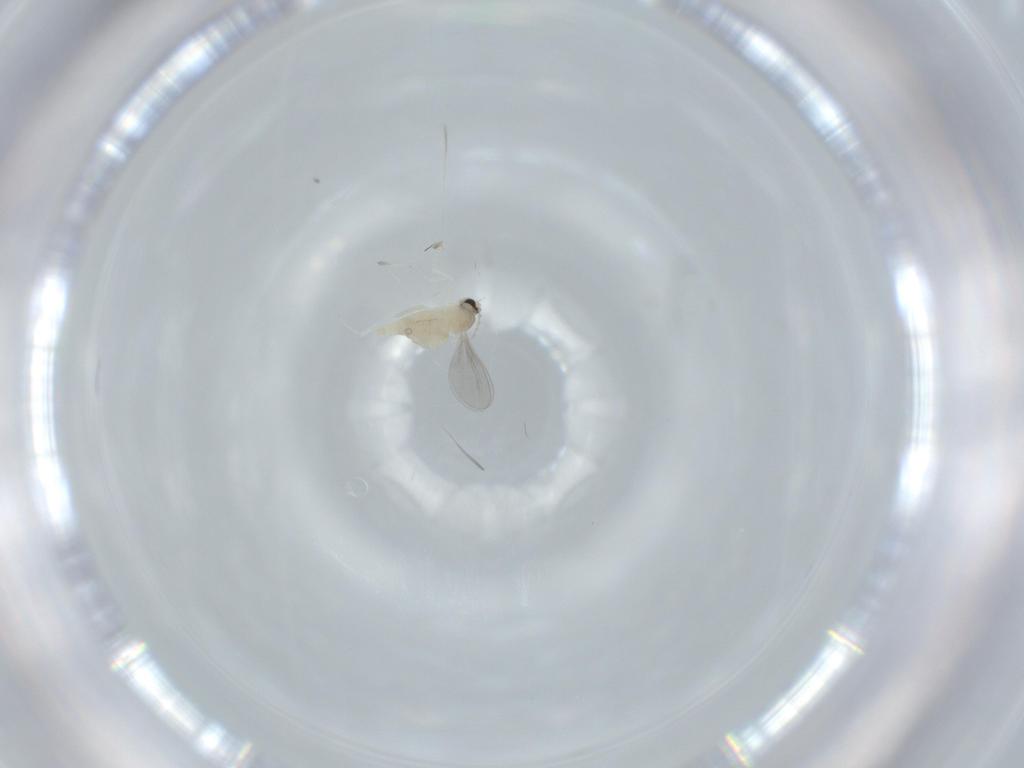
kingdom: Animalia
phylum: Arthropoda
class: Insecta
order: Diptera
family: Cecidomyiidae
